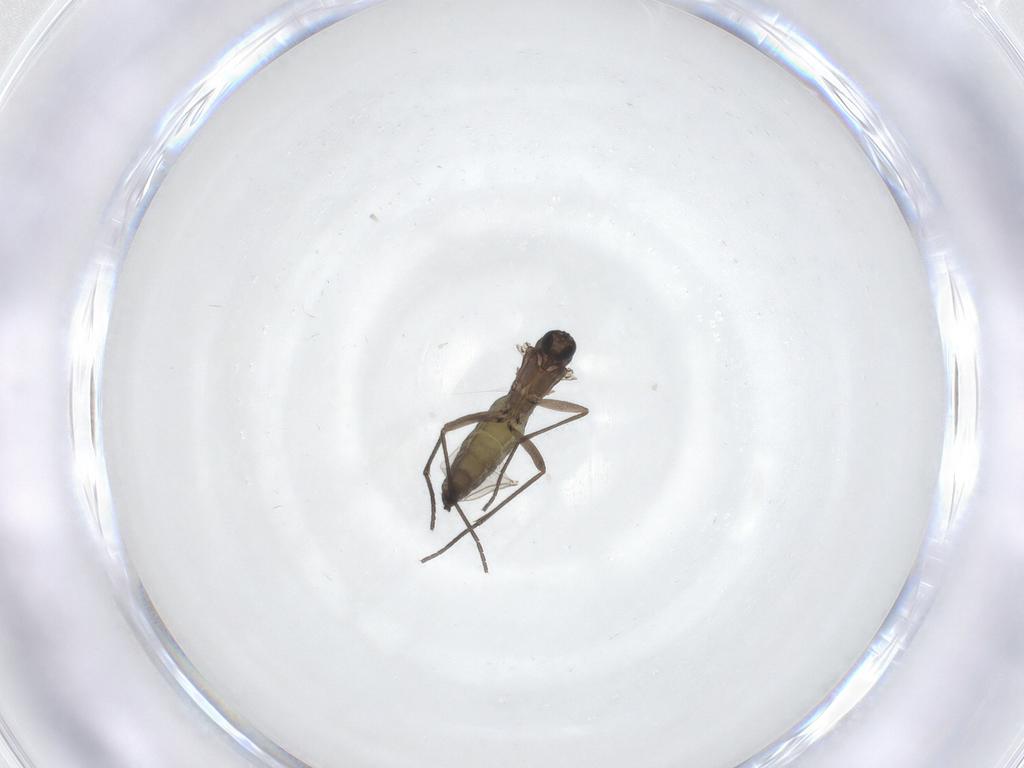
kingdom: Animalia
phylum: Arthropoda
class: Insecta
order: Diptera
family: Sciaridae
